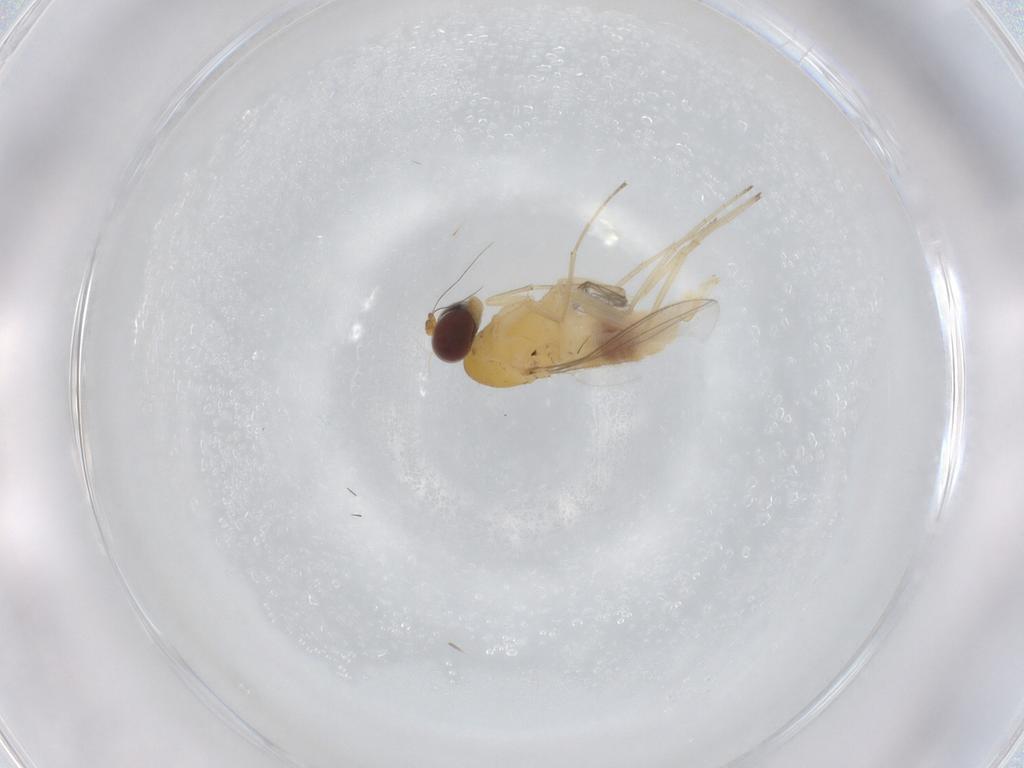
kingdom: Animalia
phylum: Arthropoda
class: Insecta
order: Diptera
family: Dolichopodidae
